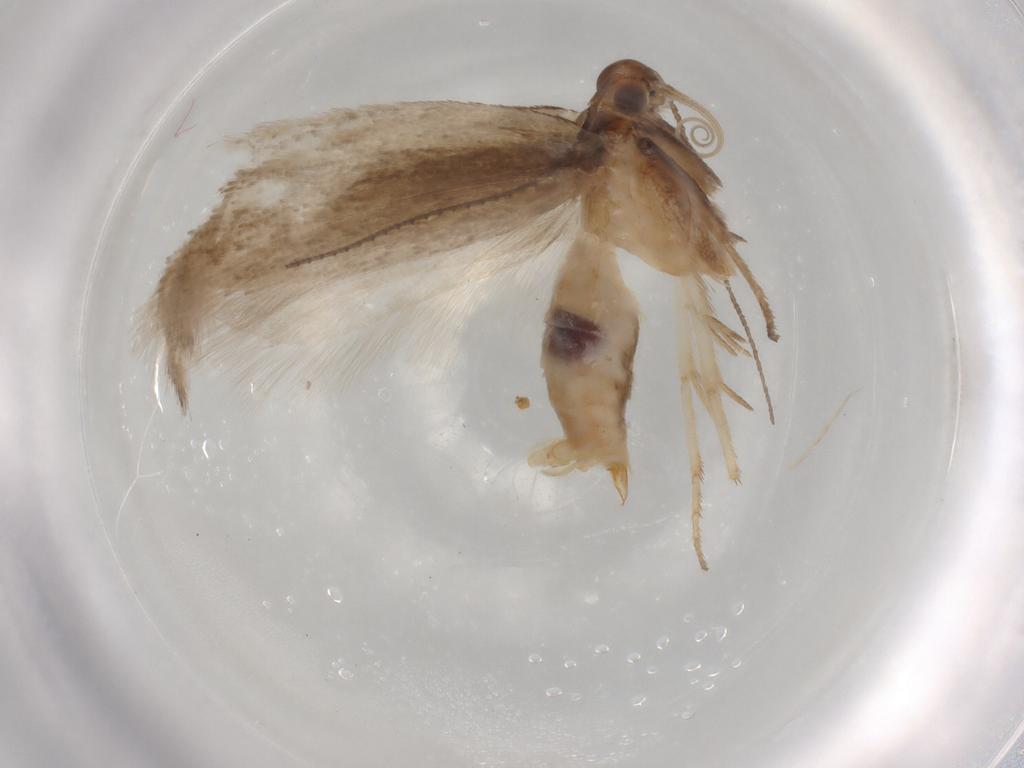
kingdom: Animalia
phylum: Arthropoda
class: Insecta
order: Lepidoptera
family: Gelechiidae
